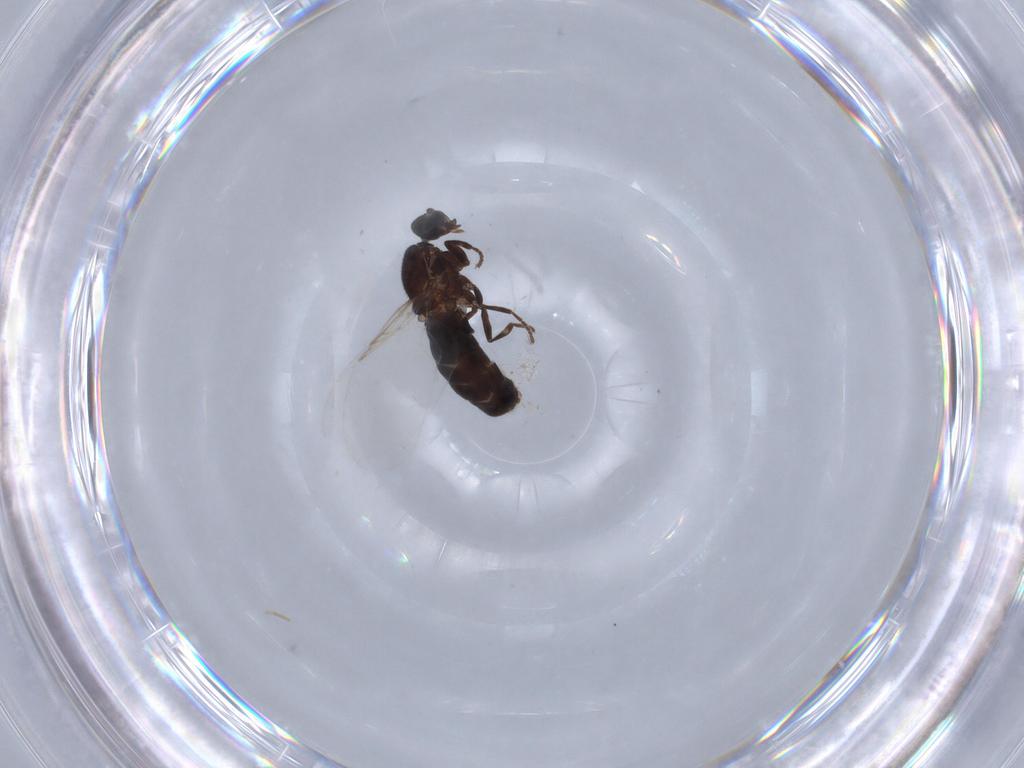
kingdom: Animalia
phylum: Arthropoda
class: Insecta
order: Diptera
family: Scatopsidae
